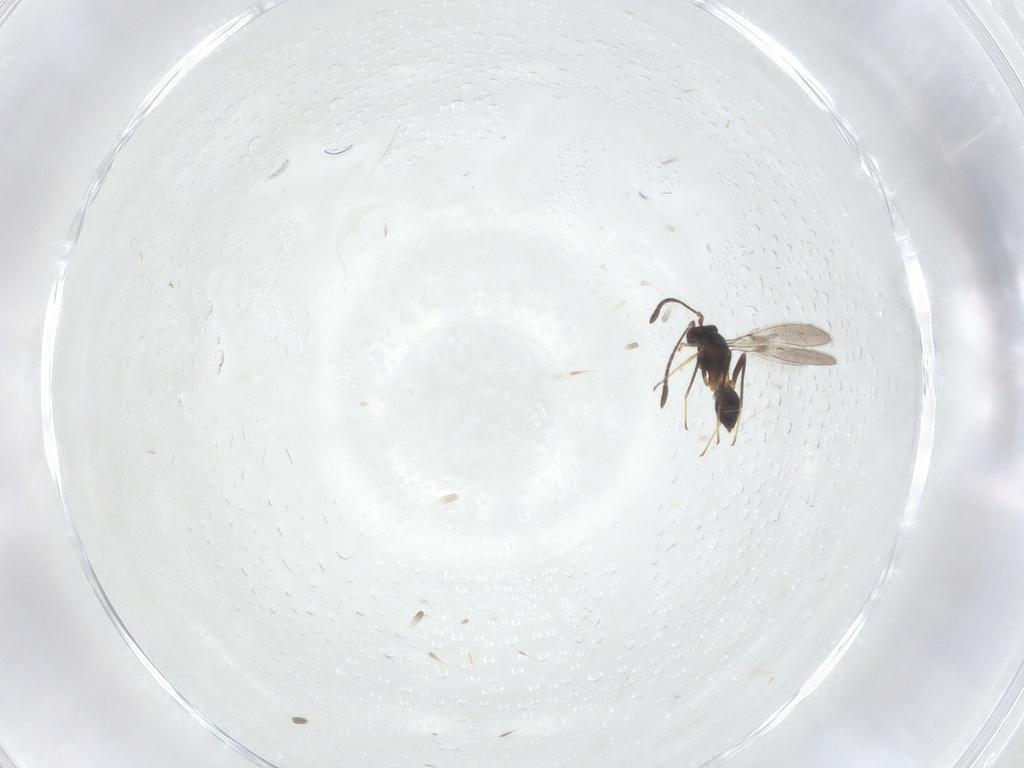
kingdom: Animalia
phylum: Arthropoda
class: Insecta
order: Hymenoptera
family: Mymaridae
